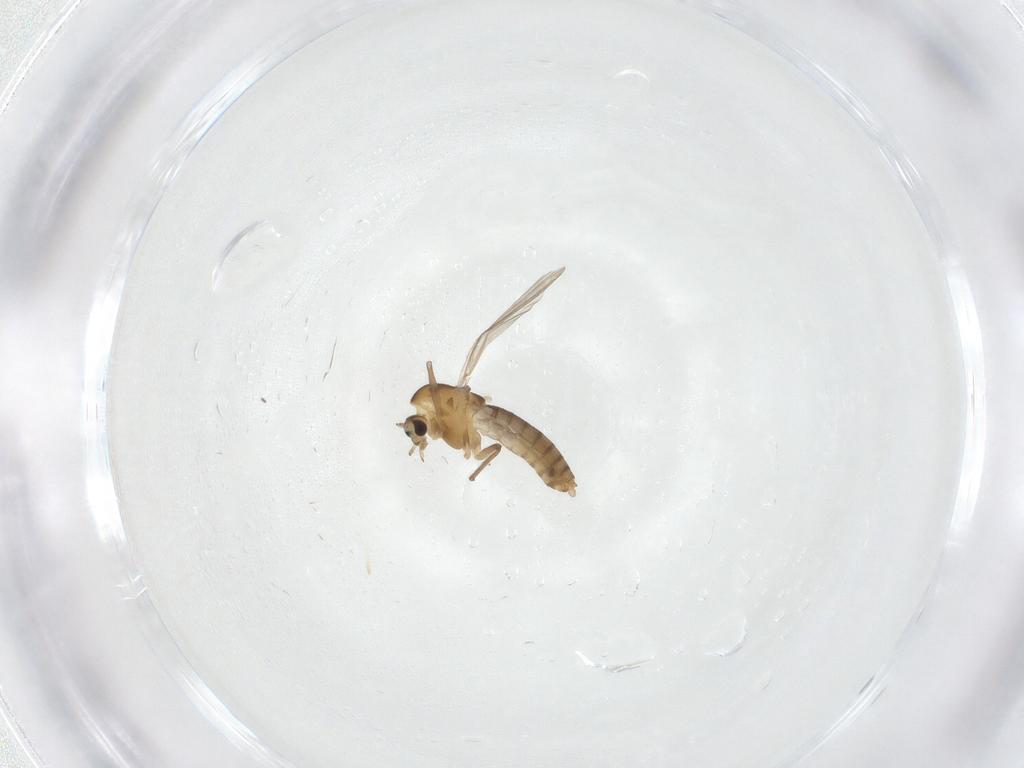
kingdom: Animalia
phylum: Arthropoda
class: Insecta
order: Diptera
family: Chironomidae
